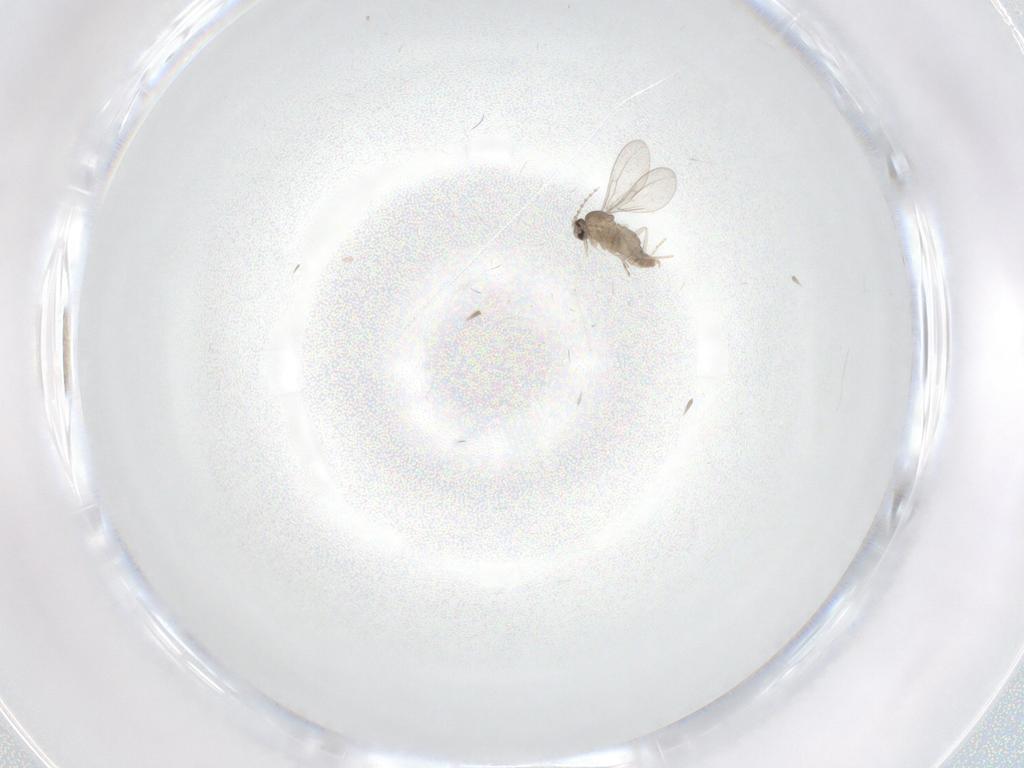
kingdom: Animalia
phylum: Arthropoda
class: Insecta
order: Diptera
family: Cecidomyiidae
